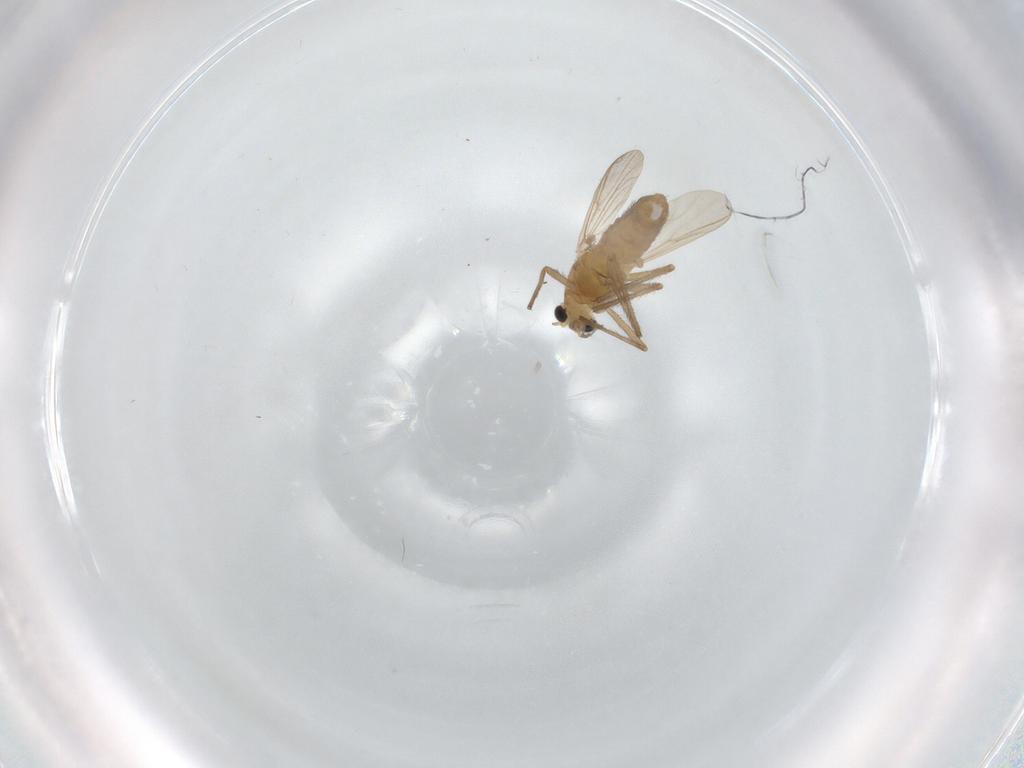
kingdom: Animalia
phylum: Arthropoda
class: Insecta
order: Diptera
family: Chironomidae
